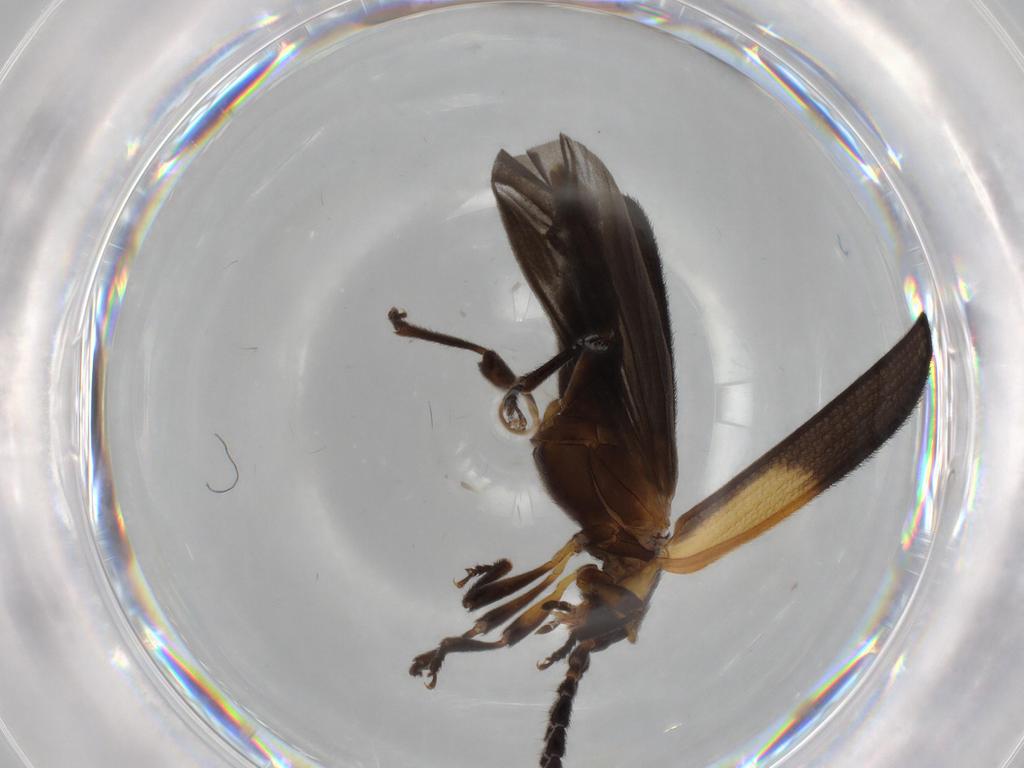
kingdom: Animalia
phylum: Arthropoda
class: Insecta
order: Coleoptera
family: Lycidae
